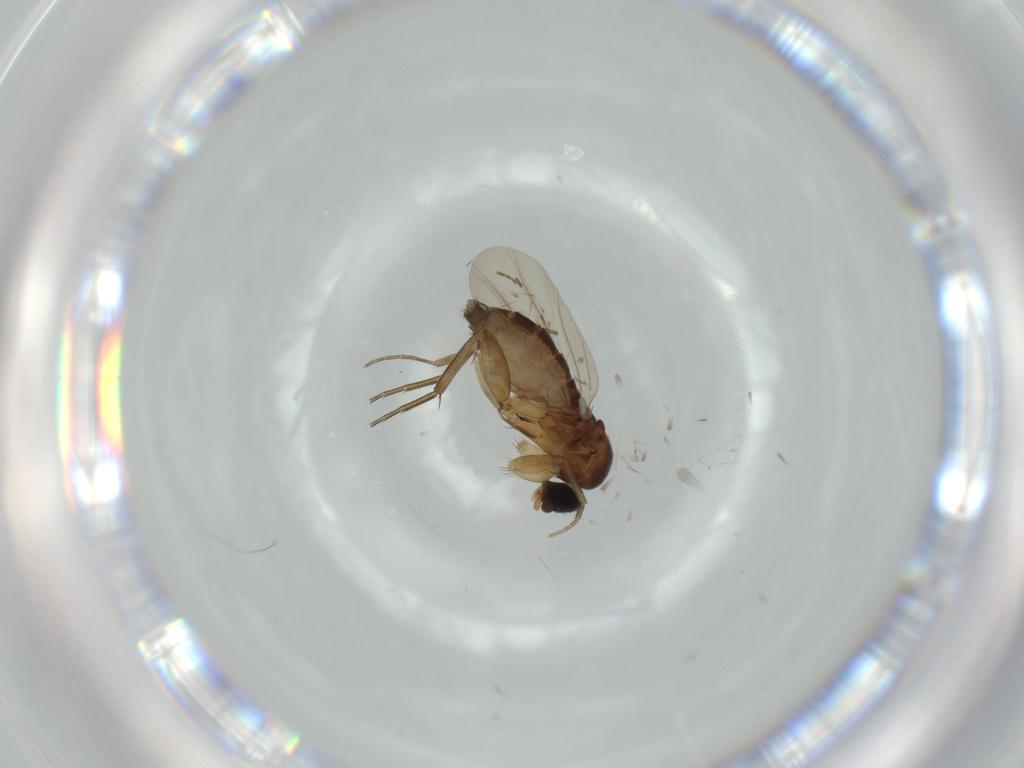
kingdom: Animalia
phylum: Arthropoda
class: Insecta
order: Diptera
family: Phoridae
